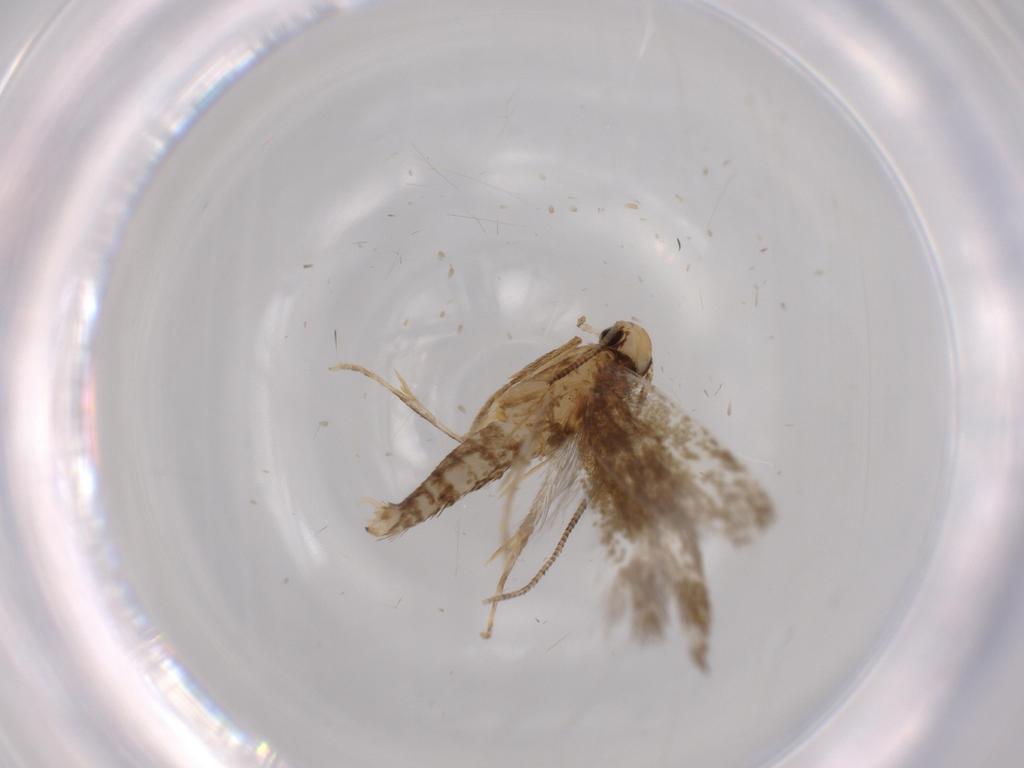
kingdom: Animalia
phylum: Arthropoda
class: Insecta
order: Lepidoptera
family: Tineidae
